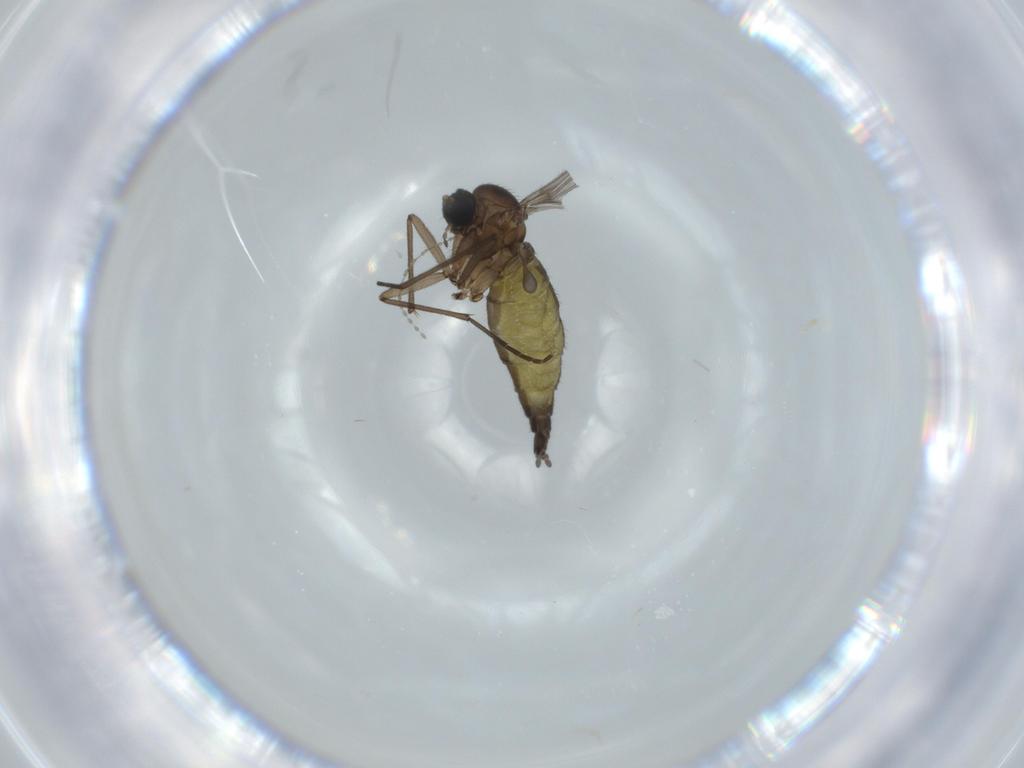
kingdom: Animalia
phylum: Arthropoda
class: Insecta
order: Diptera
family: Sciaridae
